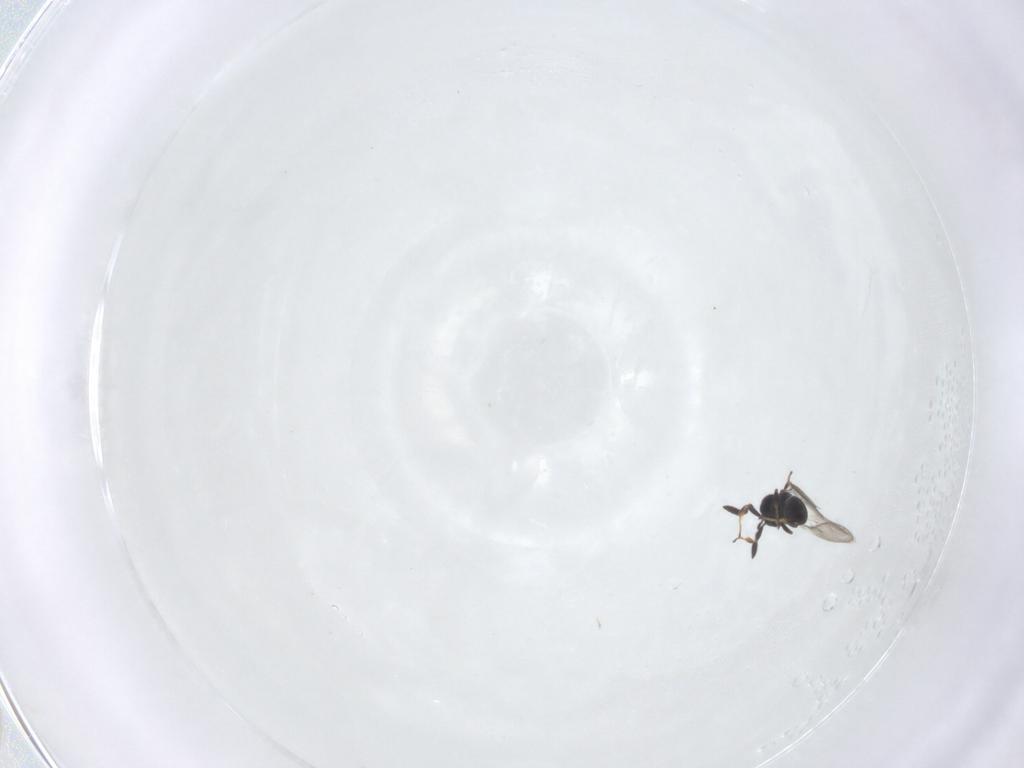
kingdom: Animalia
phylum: Arthropoda
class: Insecta
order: Hymenoptera
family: Scelionidae
